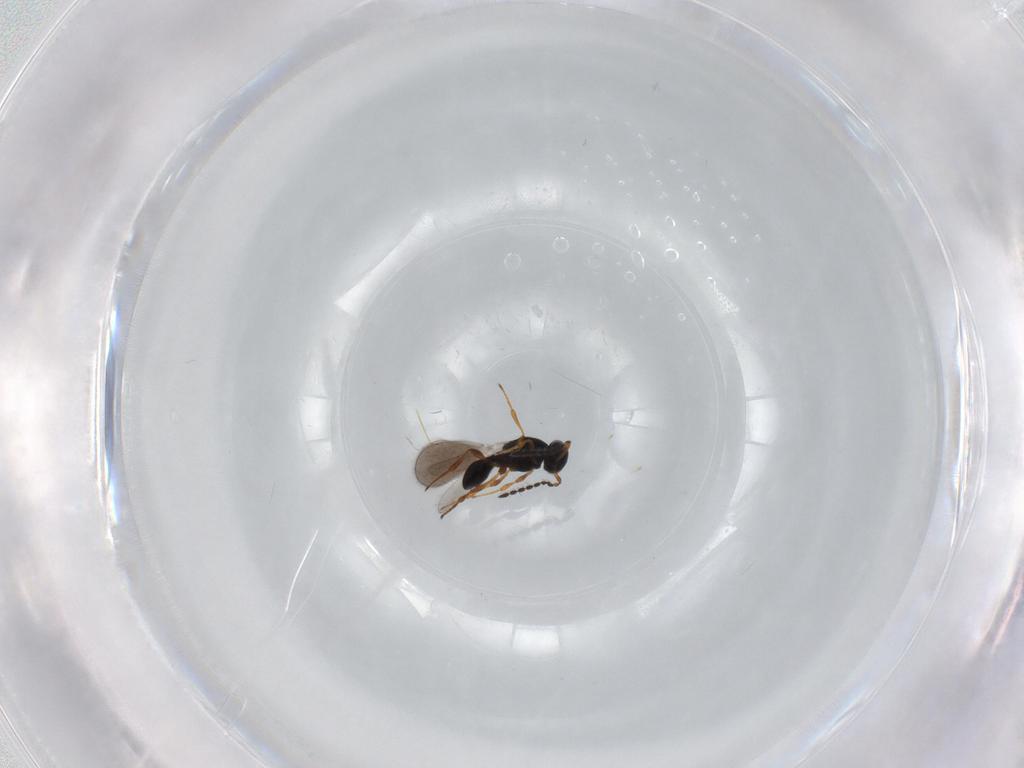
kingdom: Animalia
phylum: Arthropoda
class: Insecta
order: Hymenoptera
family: Platygastridae
